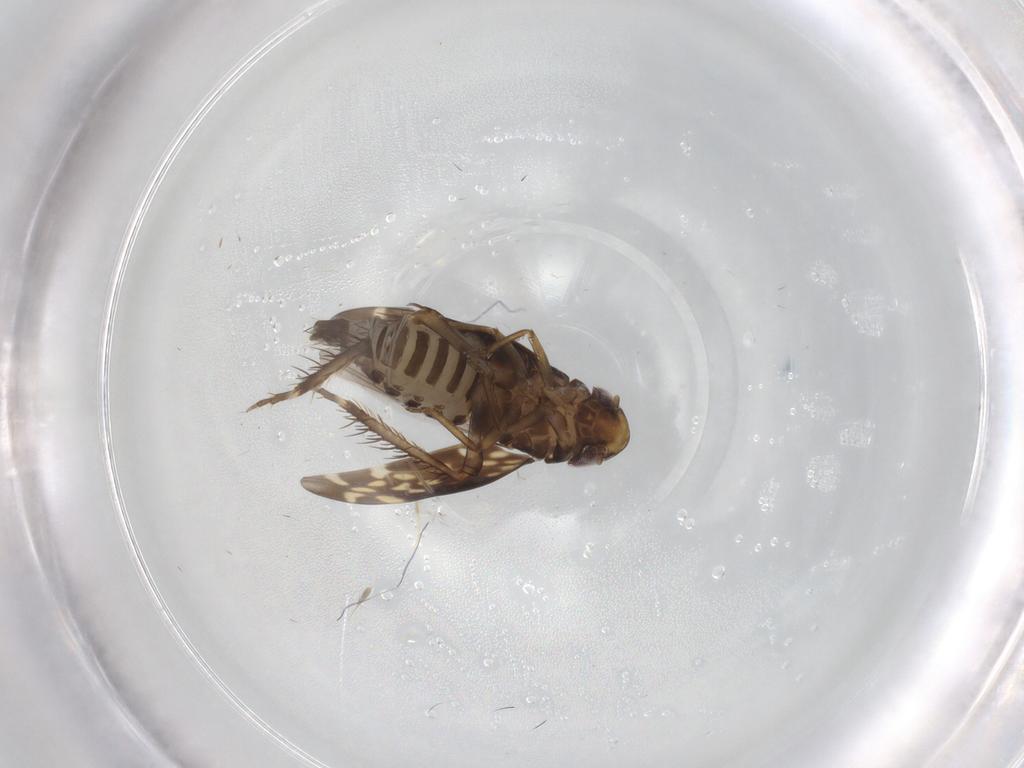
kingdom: Animalia
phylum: Arthropoda
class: Insecta
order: Hemiptera
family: Cicadellidae
